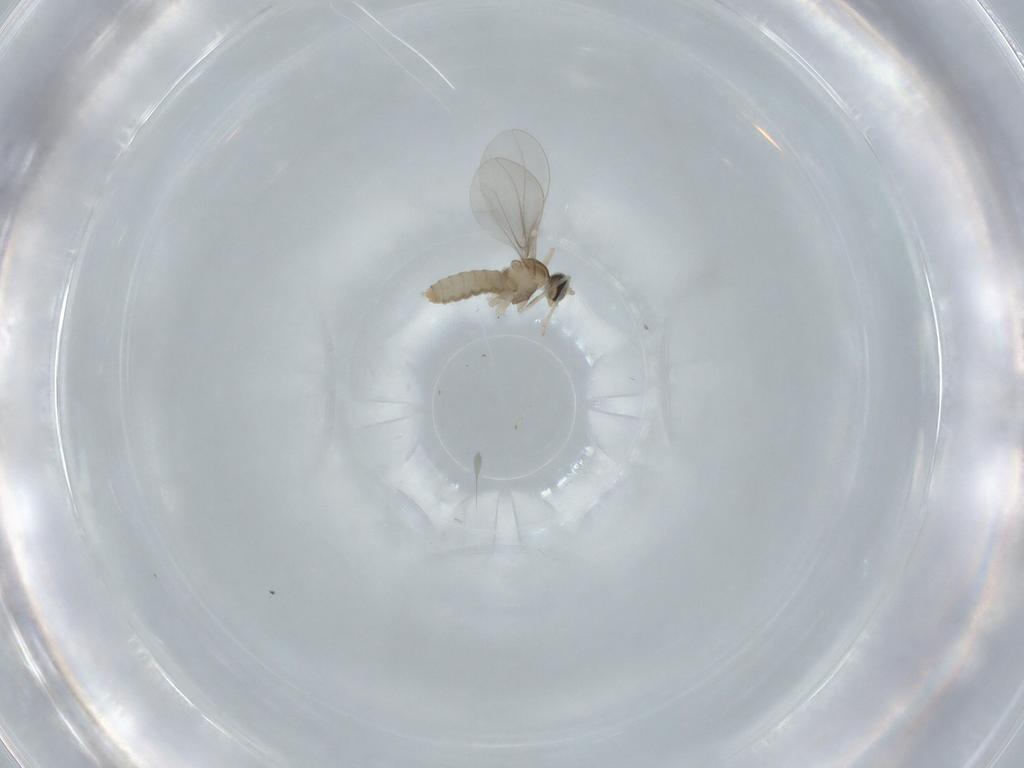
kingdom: Animalia
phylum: Arthropoda
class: Insecta
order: Diptera
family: Cecidomyiidae
